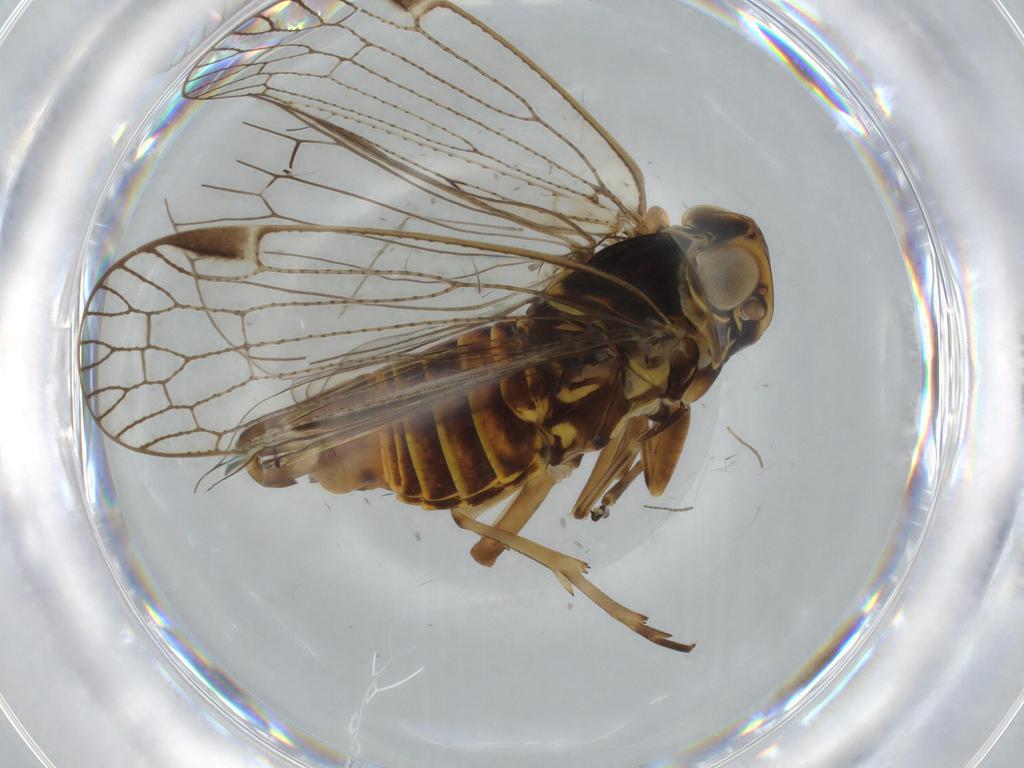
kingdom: Animalia
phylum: Arthropoda
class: Insecta
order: Hemiptera
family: Cixiidae
